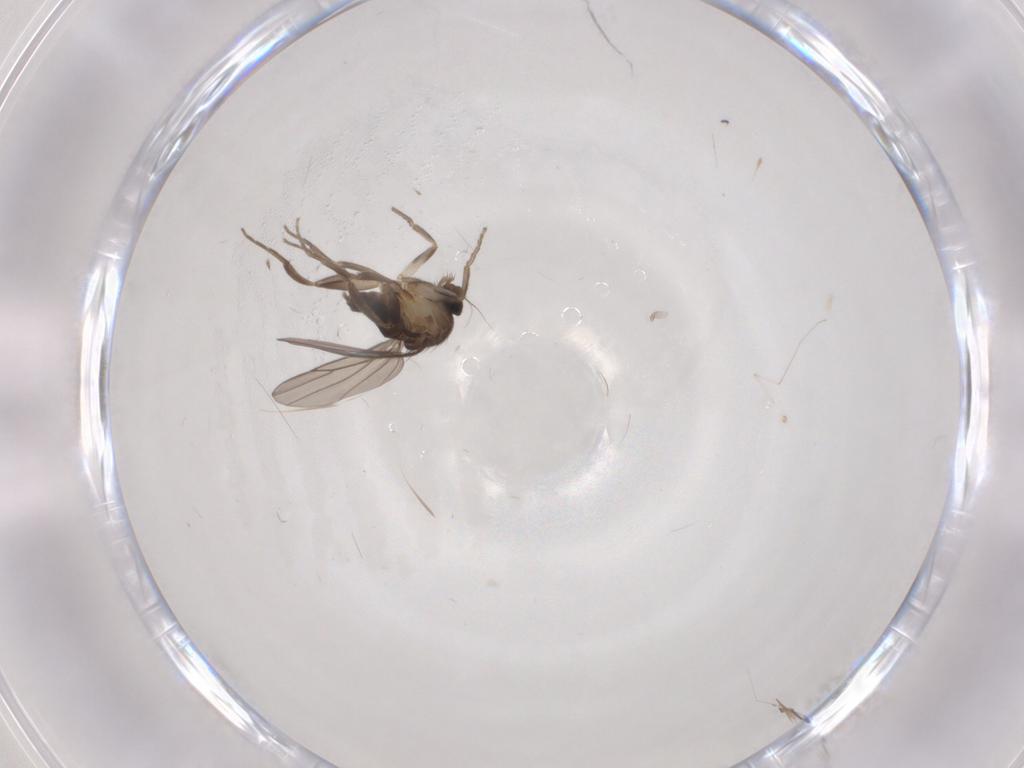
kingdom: Animalia
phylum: Arthropoda
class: Insecta
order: Diptera
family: Cecidomyiidae
